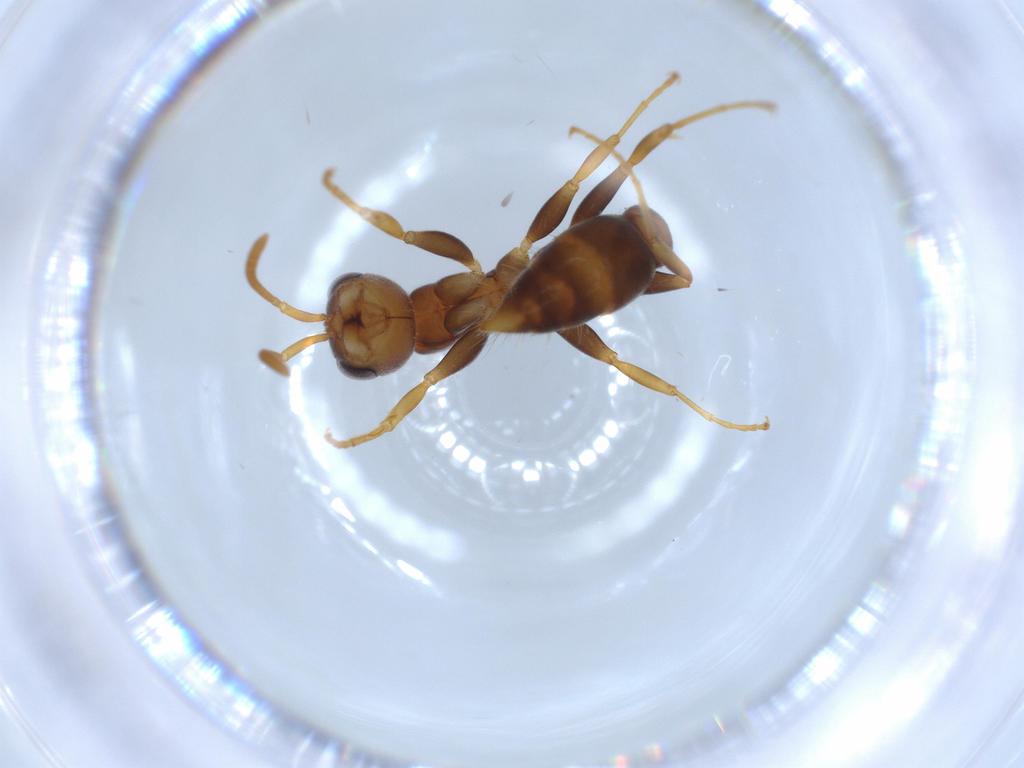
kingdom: Animalia
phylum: Arthropoda
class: Insecta
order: Hymenoptera
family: Formicidae
